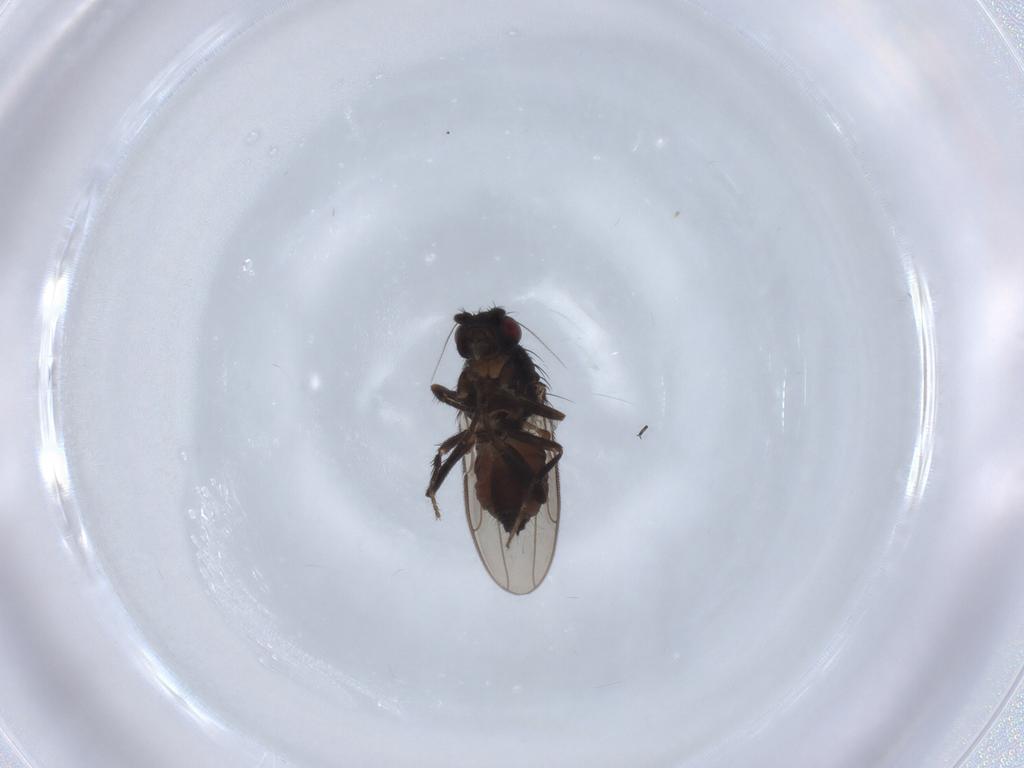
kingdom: Animalia
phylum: Arthropoda
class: Insecta
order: Diptera
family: Sphaeroceridae
